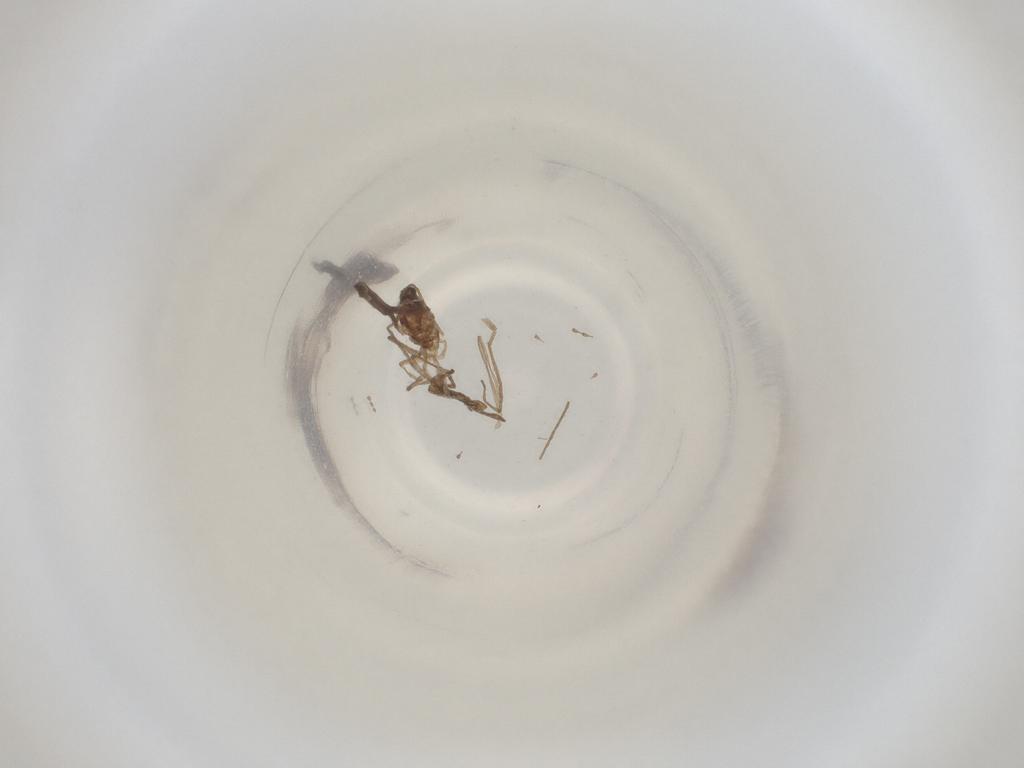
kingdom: Animalia
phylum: Arthropoda
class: Insecta
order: Diptera
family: Cecidomyiidae
